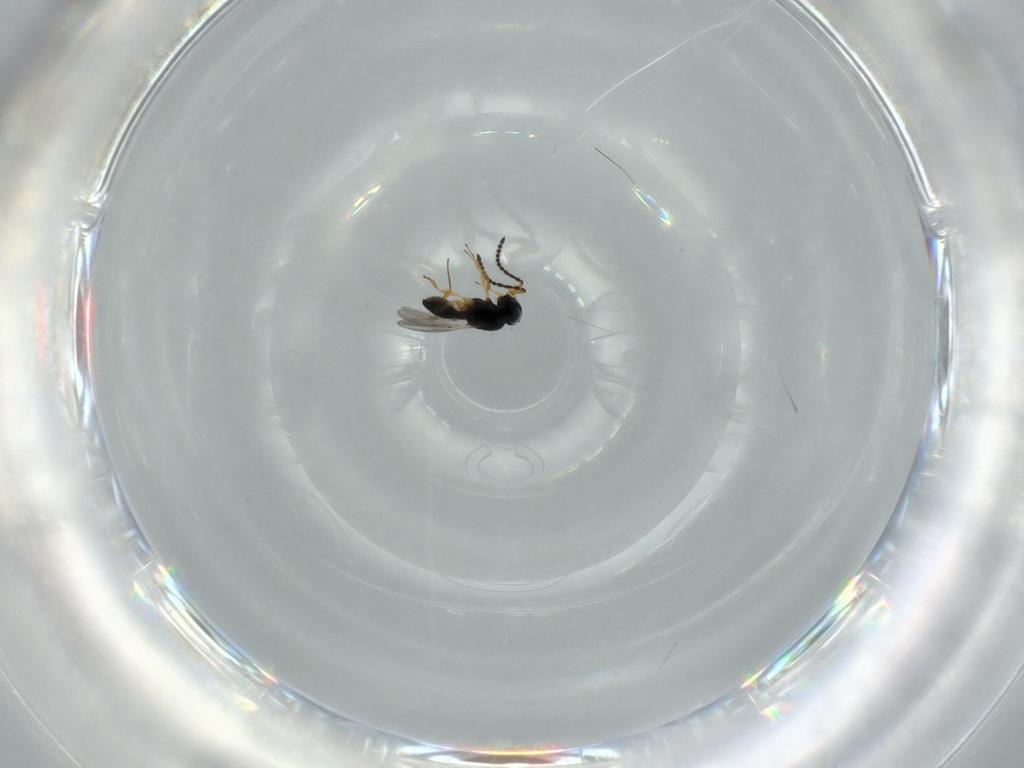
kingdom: Animalia
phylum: Arthropoda
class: Insecta
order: Hymenoptera
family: Scelionidae
